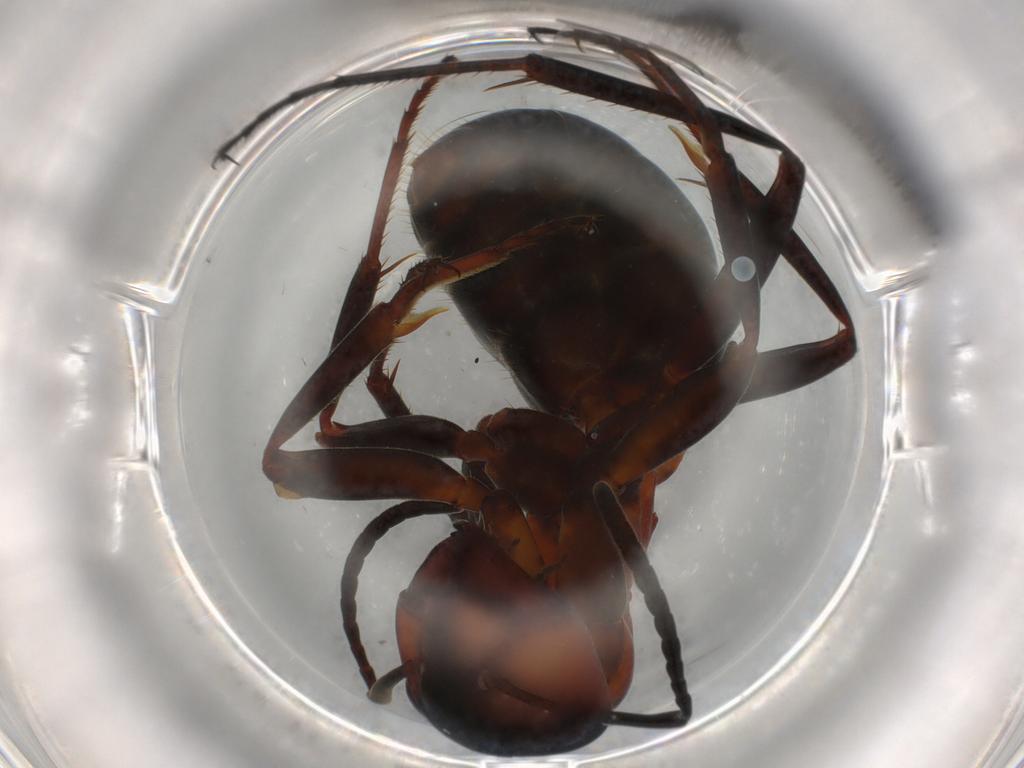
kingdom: Animalia
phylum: Arthropoda
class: Insecta
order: Hymenoptera
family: Formicidae
